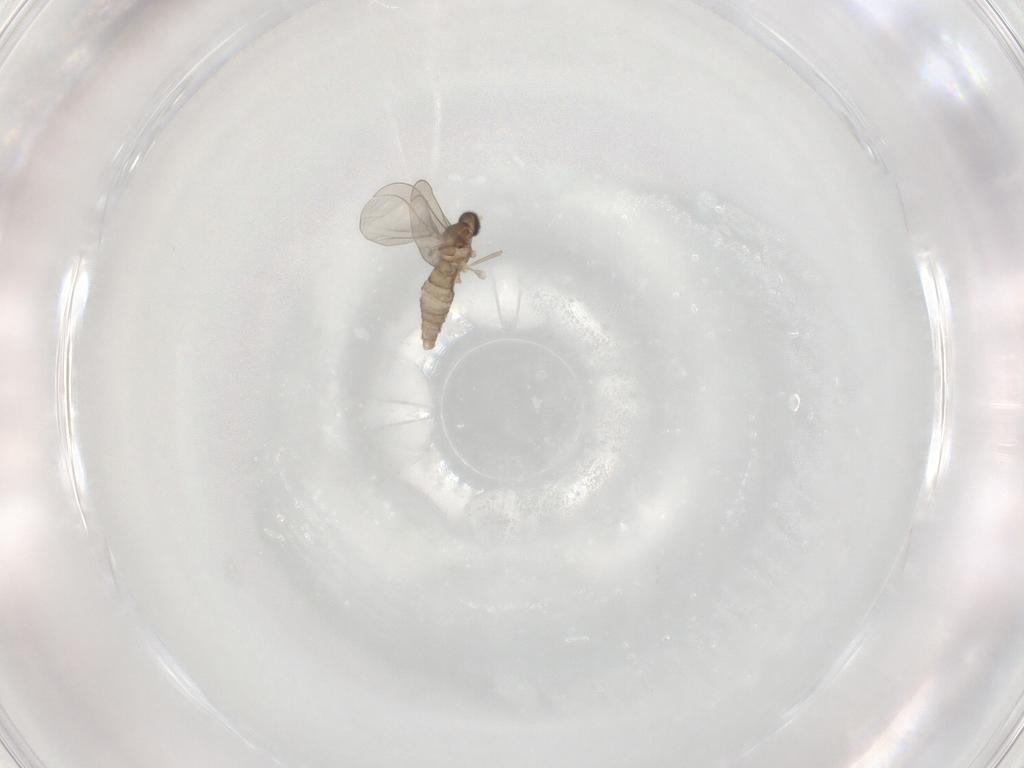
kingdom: Animalia
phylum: Arthropoda
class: Insecta
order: Diptera
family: Cecidomyiidae
